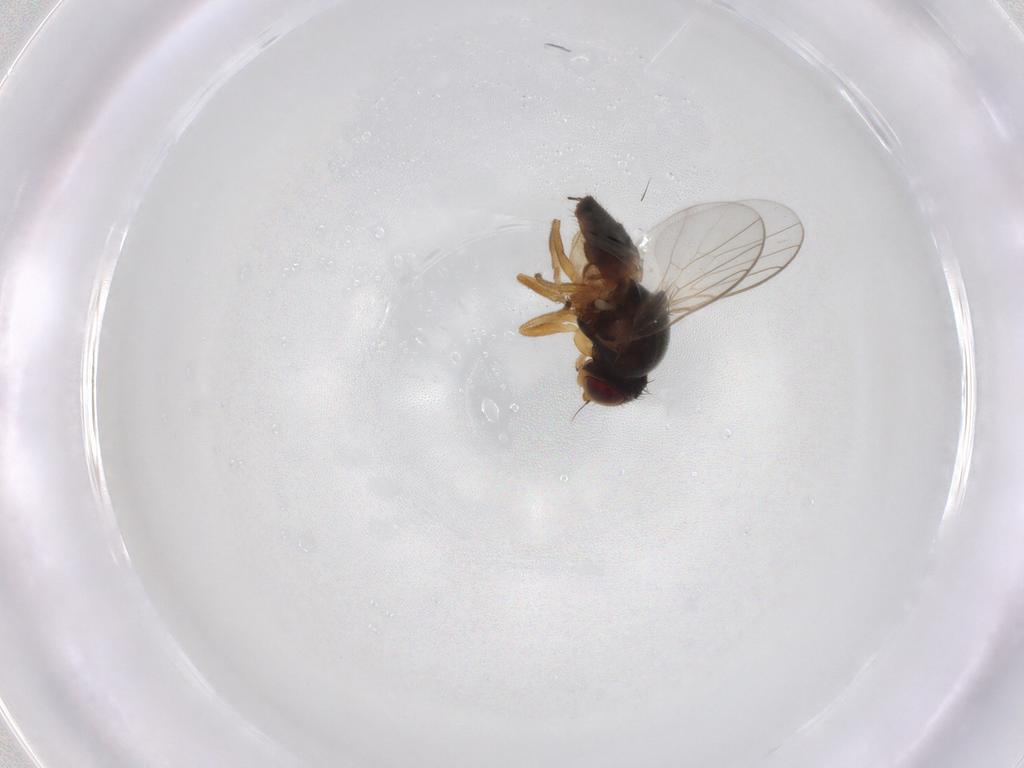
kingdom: Animalia
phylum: Arthropoda
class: Insecta
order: Diptera
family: Chloropidae
